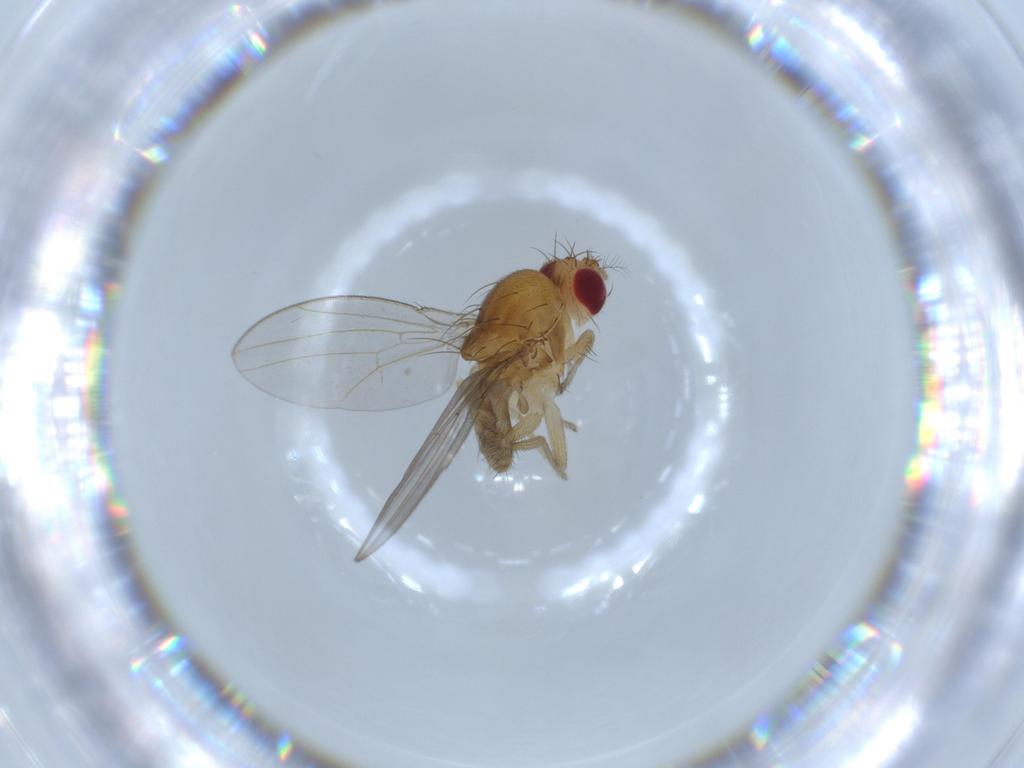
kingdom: Animalia
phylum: Arthropoda
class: Insecta
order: Diptera
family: Drosophilidae
